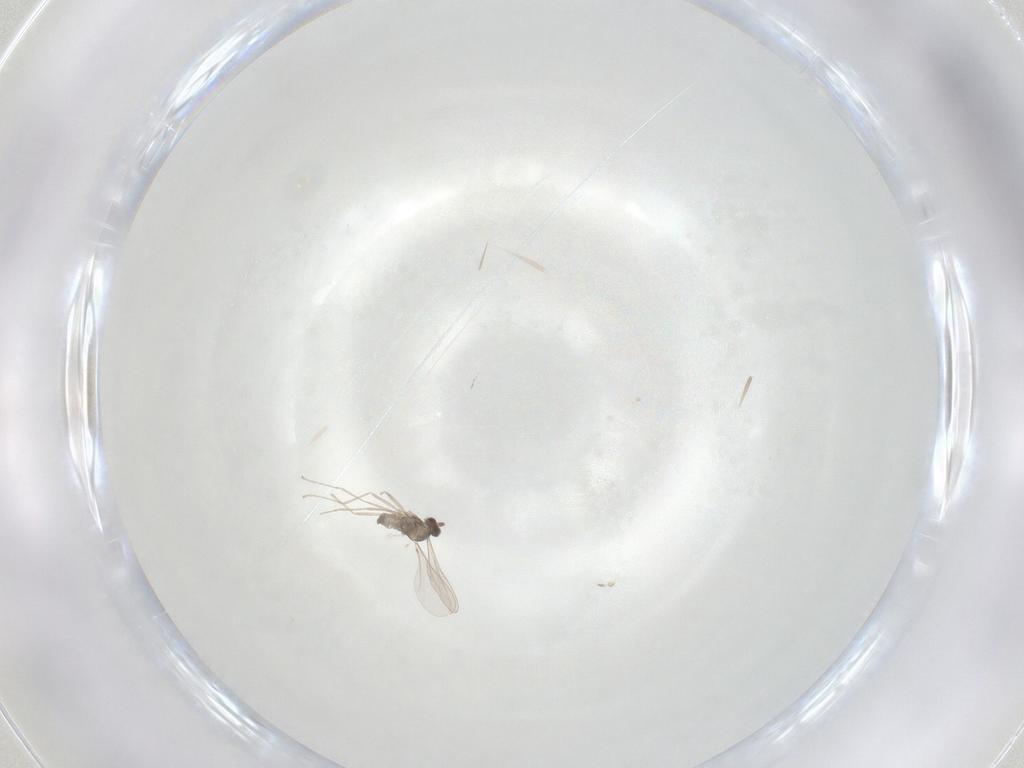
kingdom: Animalia
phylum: Arthropoda
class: Insecta
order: Diptera
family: Sciaridae
